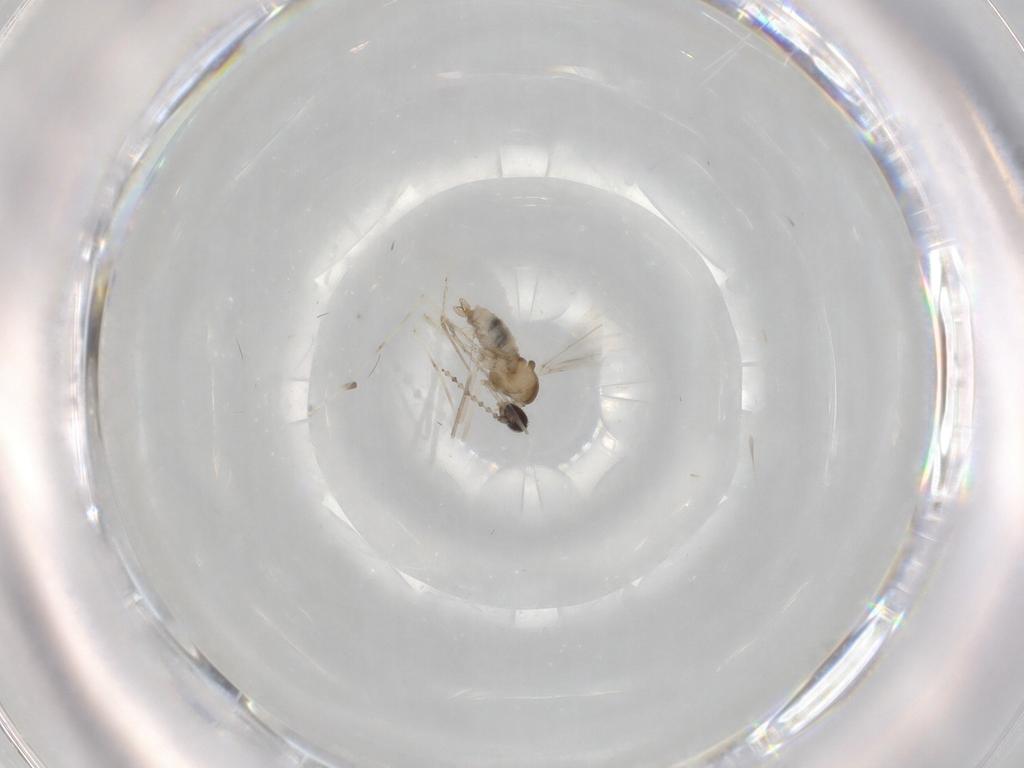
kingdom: Animalia
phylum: Arthropoda
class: Insecta
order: Diptera
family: Cecidomyiidae
